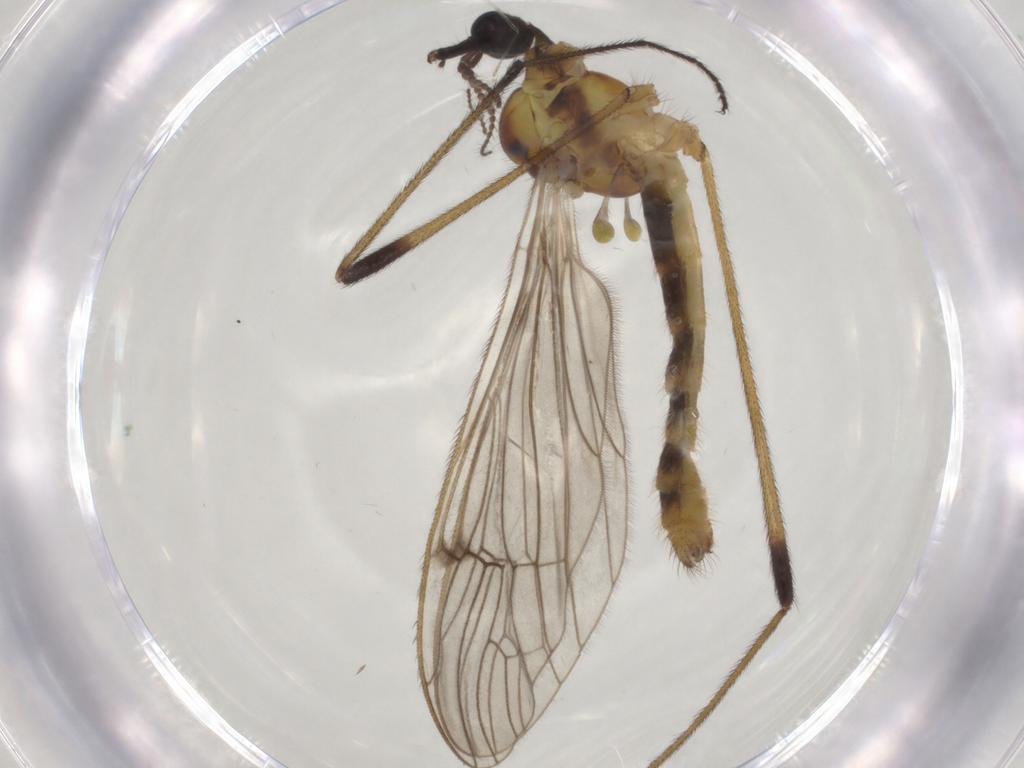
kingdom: Animalia
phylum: Arthropoda
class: Insecta
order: Diptera
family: Limoniidae
